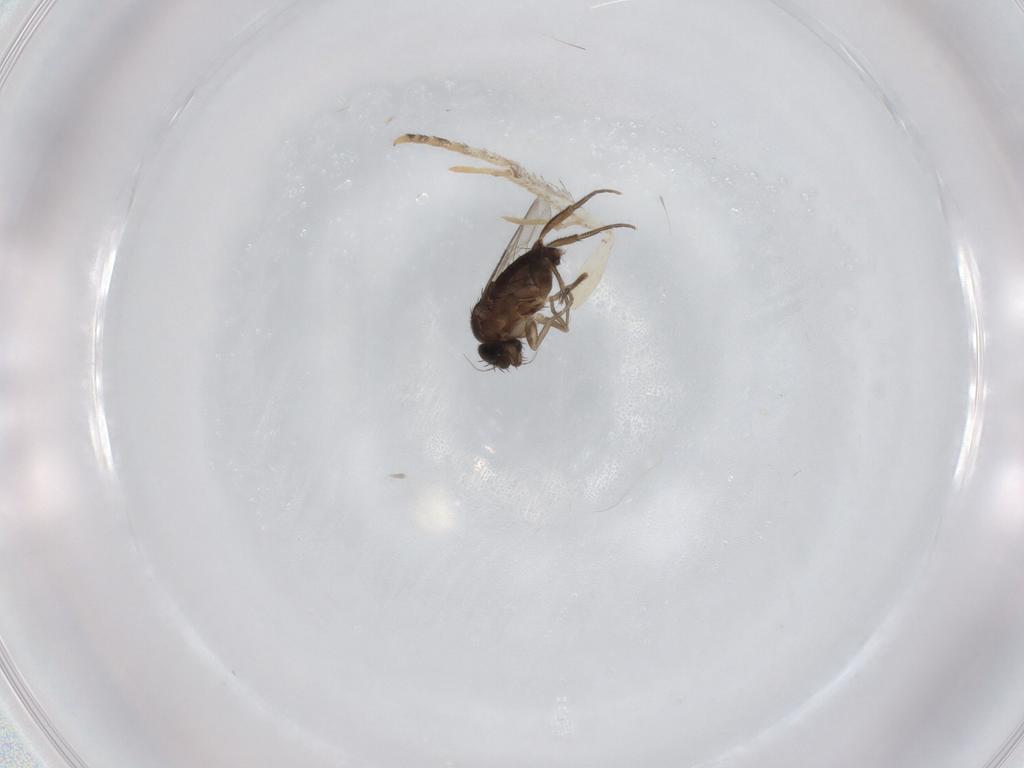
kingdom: Animalia
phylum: Arthropoda
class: Insecta
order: Diptera
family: Phoridae
